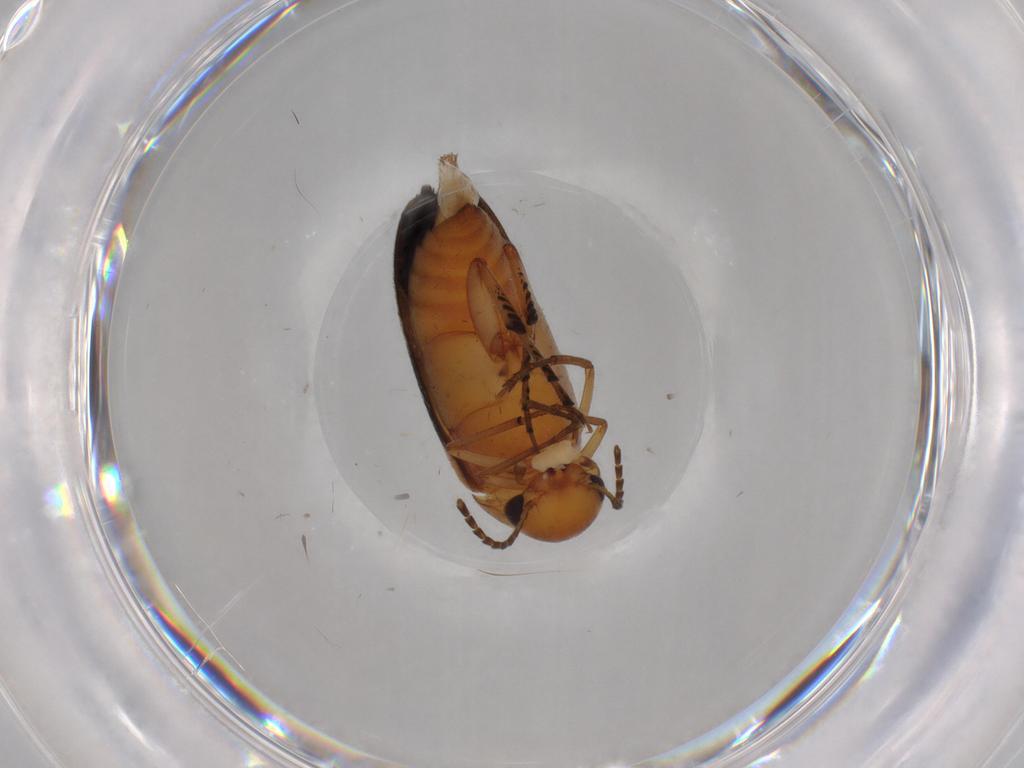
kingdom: Animalia
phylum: Arthropoda
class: Insecta
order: Coleoptera
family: Mordellidae
